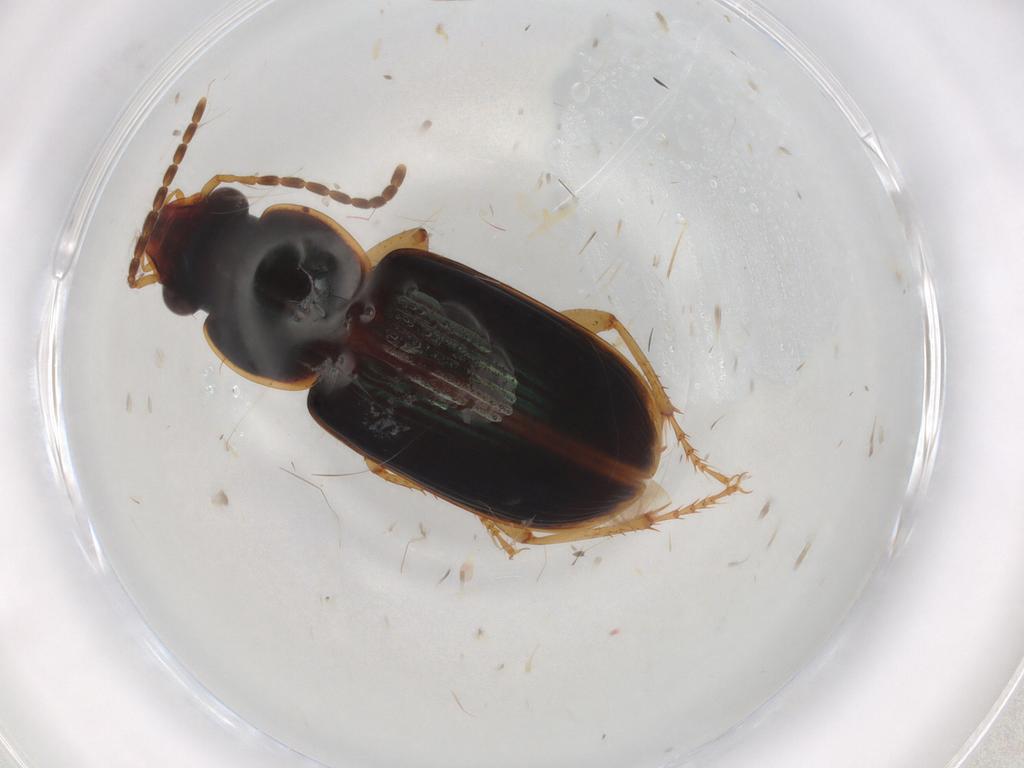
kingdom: Animalia
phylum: Arthropoda
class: Insecta
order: Coleoptera
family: Carabidae
